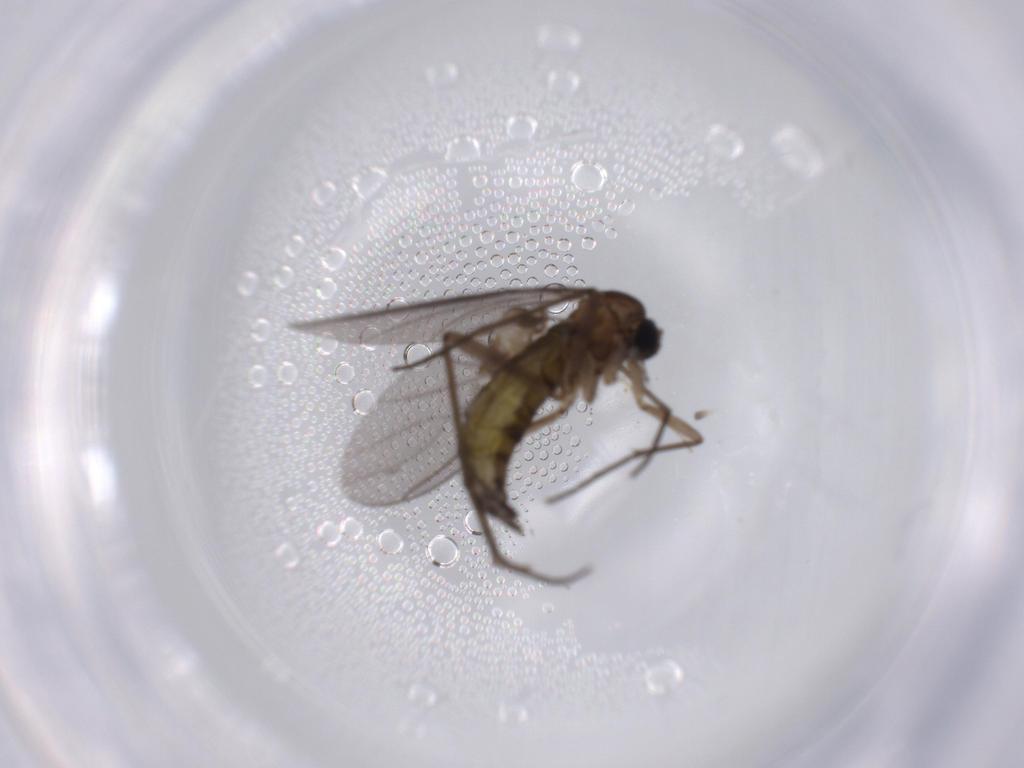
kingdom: Animalia
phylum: Arthropoda
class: Insecta
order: Diptera
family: Cecidomyiidae
